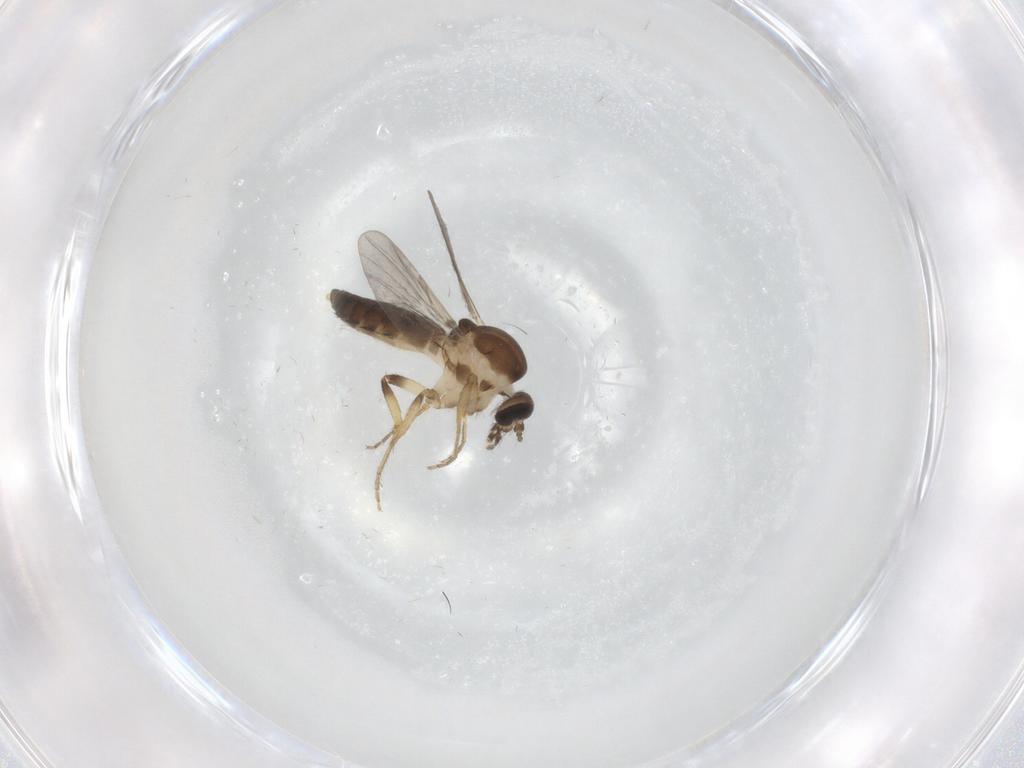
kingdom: Animalia
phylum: Arthropoda
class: Insecta
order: Diptera
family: Ceratopogonidae
